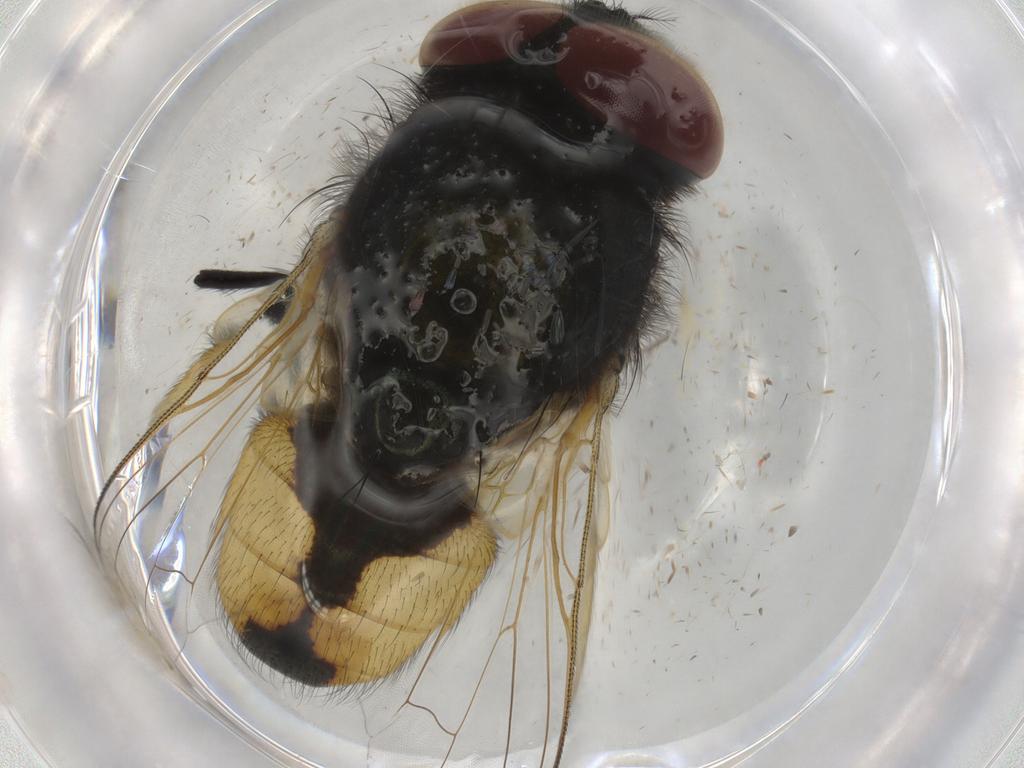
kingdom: Animalia
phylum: Arthropoda
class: Insecta
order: Diptera
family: Muscidae
